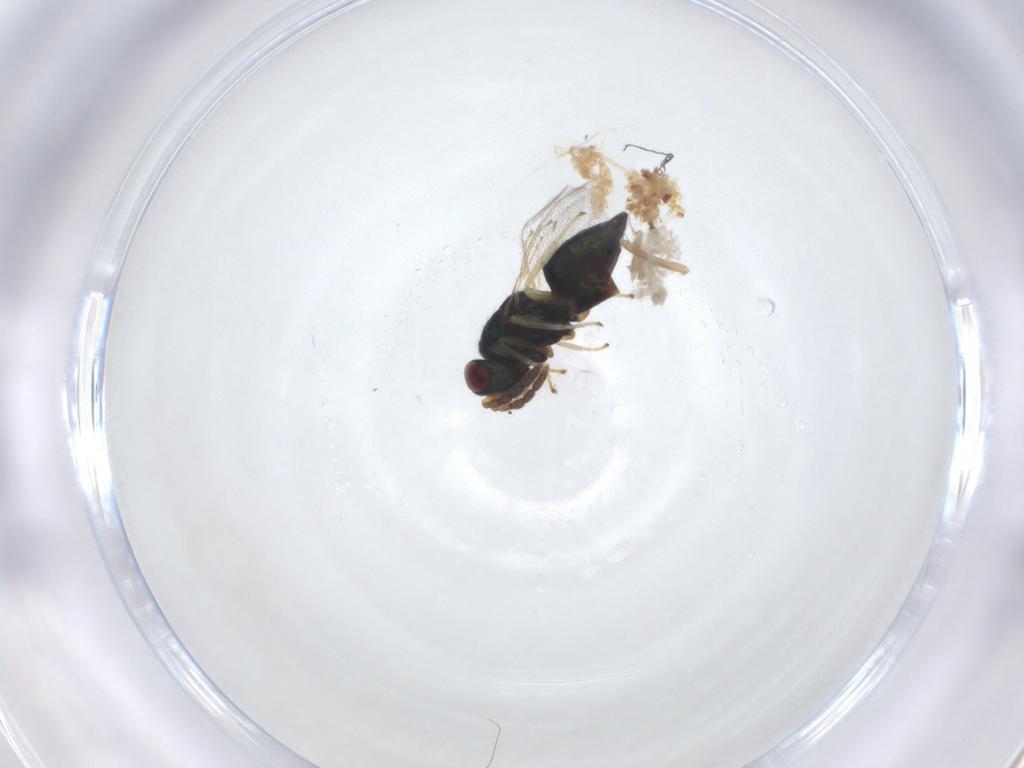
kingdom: Animalia
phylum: Arthropoda
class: Insecta
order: Hymenoptera
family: Eulophidae
